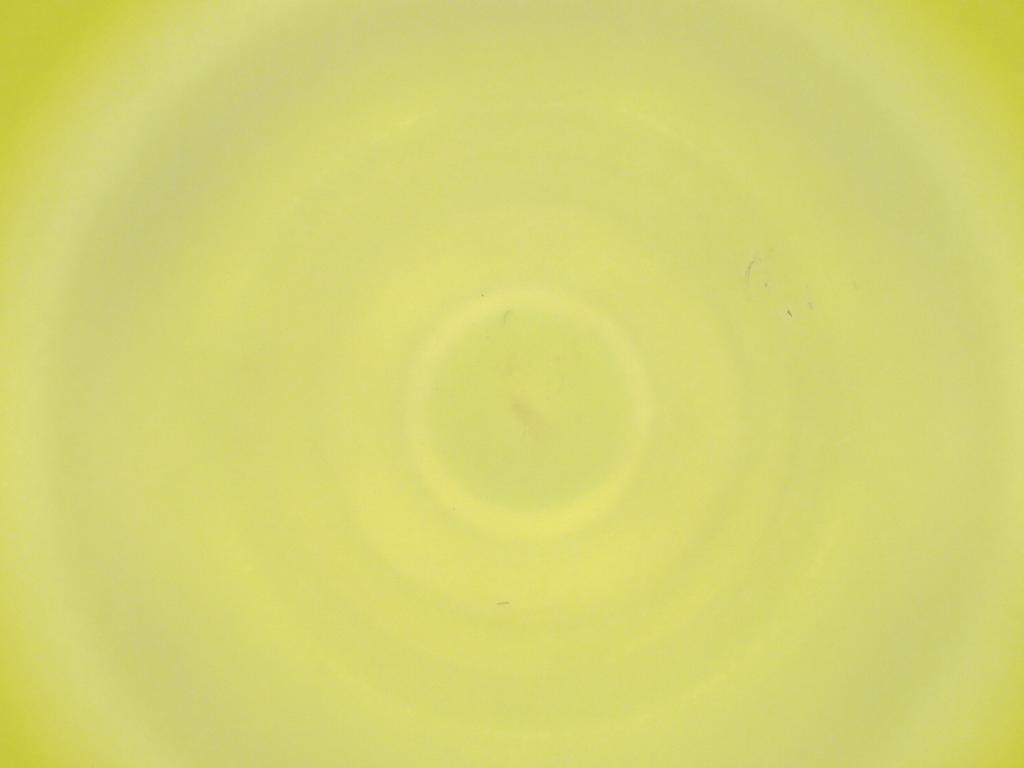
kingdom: Animalia
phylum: Arthropoda
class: Insecta
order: Diptera
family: Cecidomyiidae
